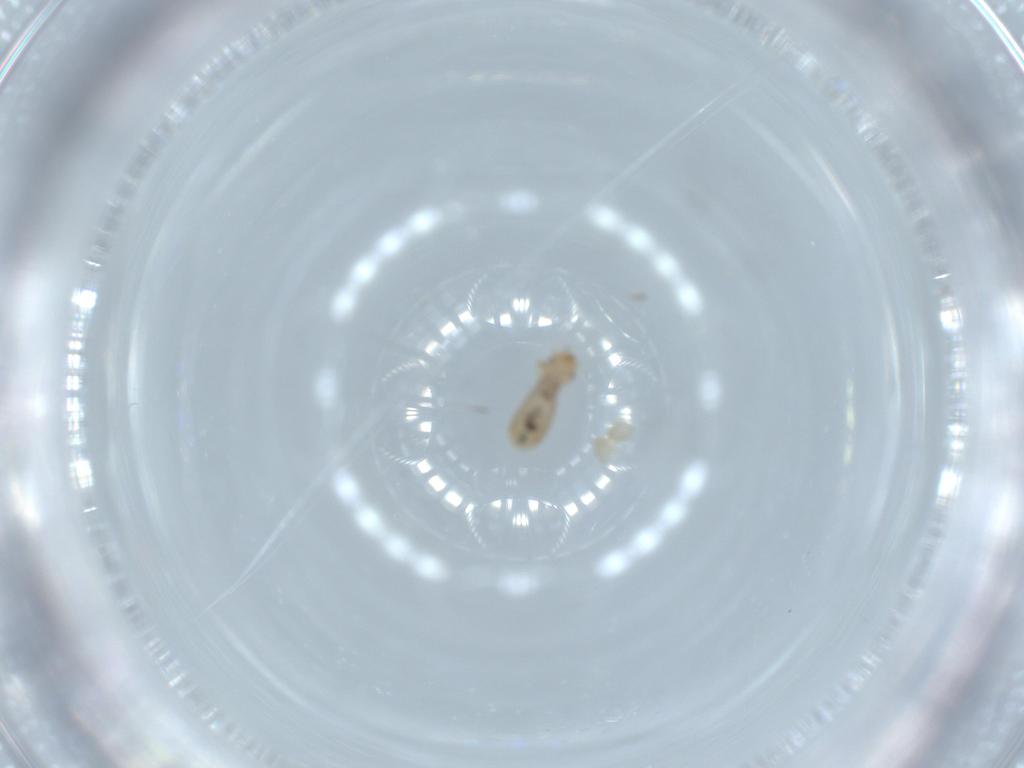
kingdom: Animalia
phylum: Arthropoda
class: Insecta
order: Psocodea
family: Liposcelididae
